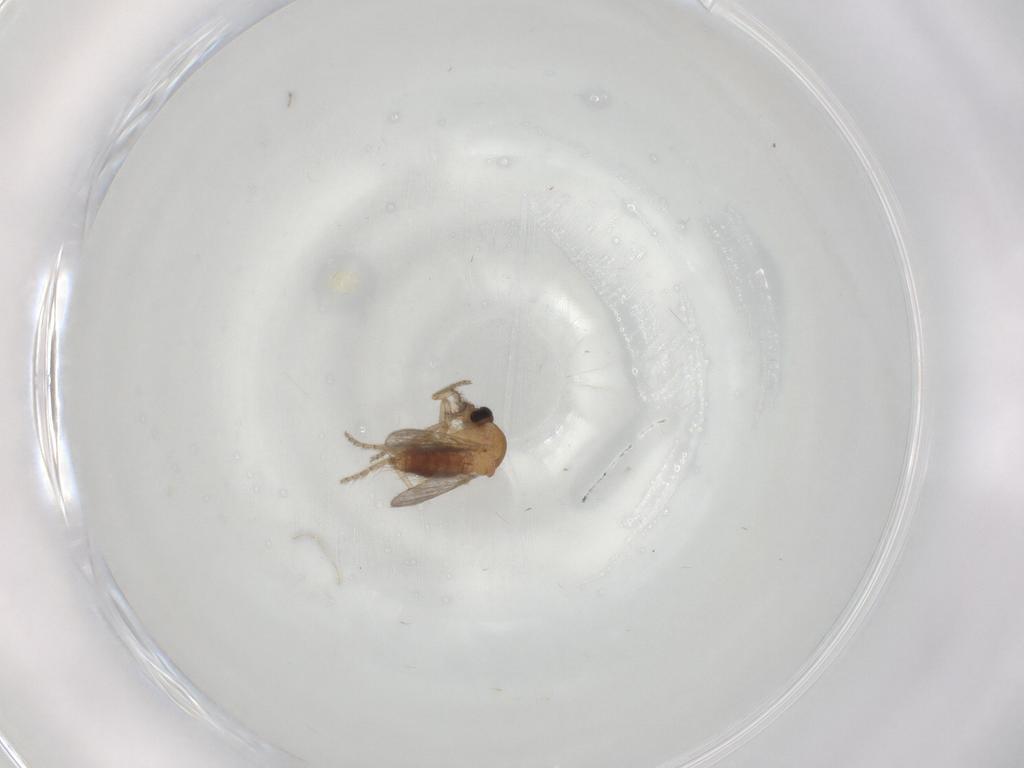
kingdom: Animalia
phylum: Arthropoda
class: Insecta
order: Diptera
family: Ceratopogonidae
